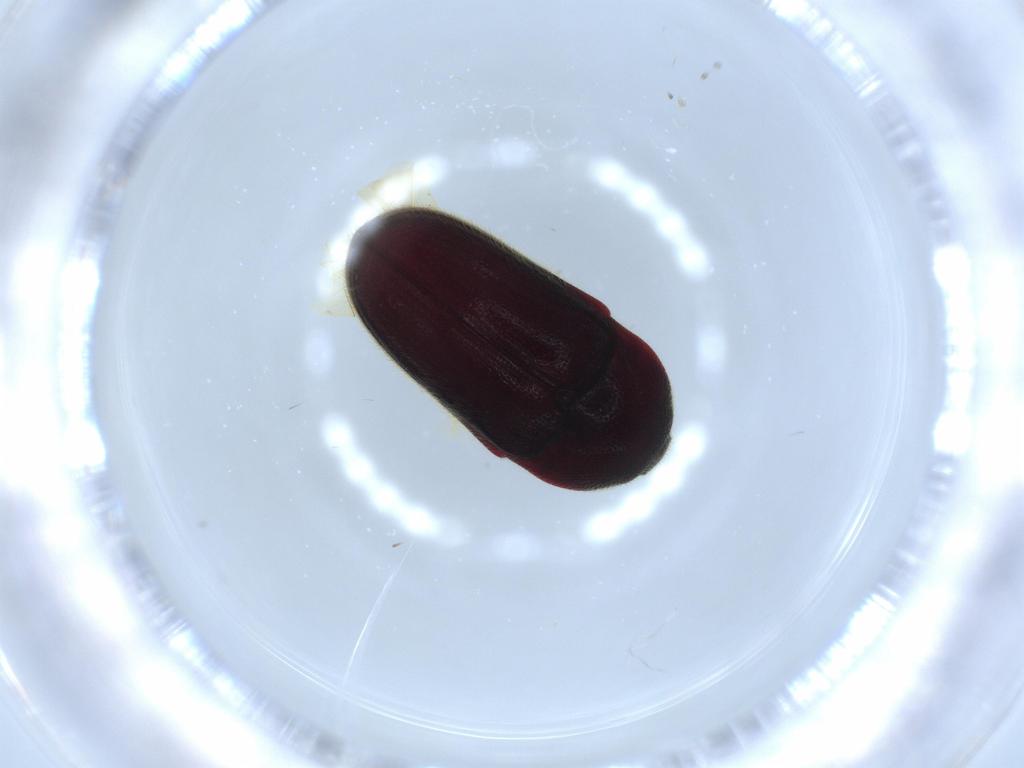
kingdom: Animalia
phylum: Arthropoda
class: Insecta
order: Coleoptera
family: Throscidae
